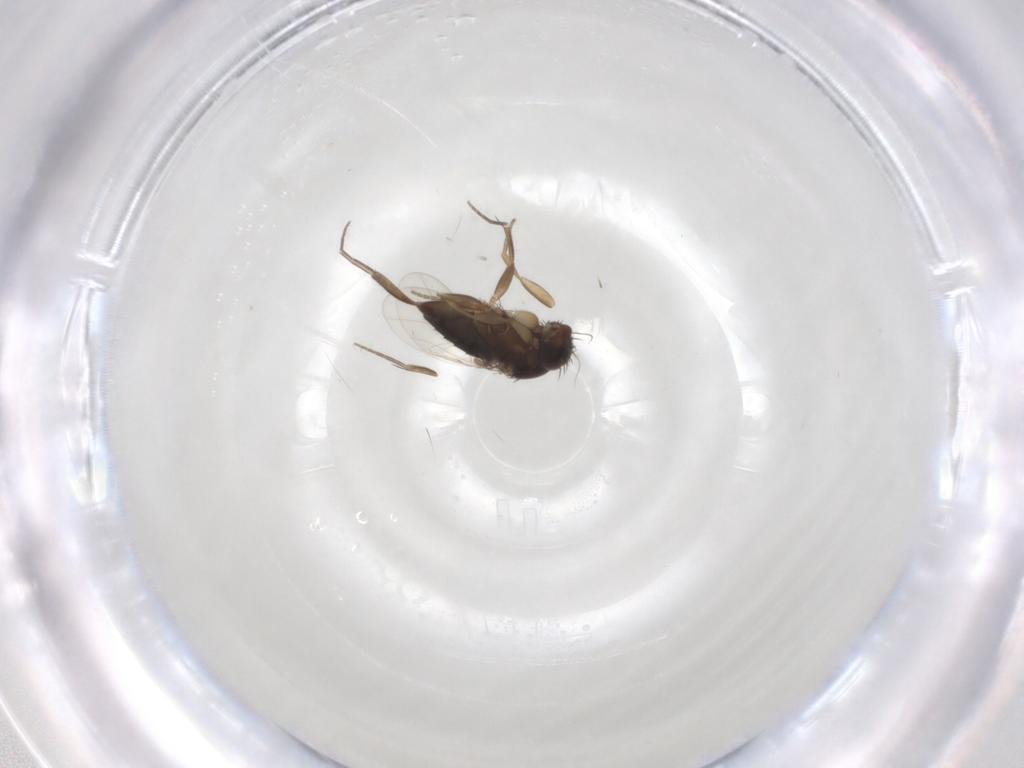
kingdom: Animalia
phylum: Arthropoda
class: Insecta
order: Diptera
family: Phoridae
